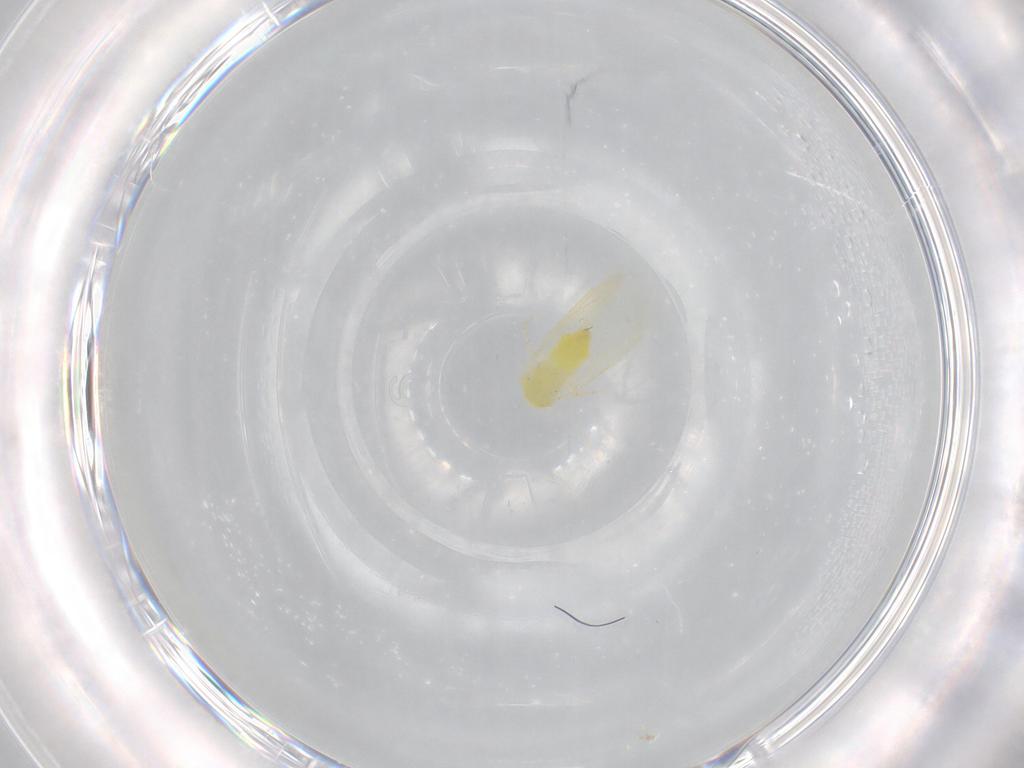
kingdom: Animalia
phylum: Arthropoda
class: Insecta
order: Hemiptera
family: Aleyrodidae
